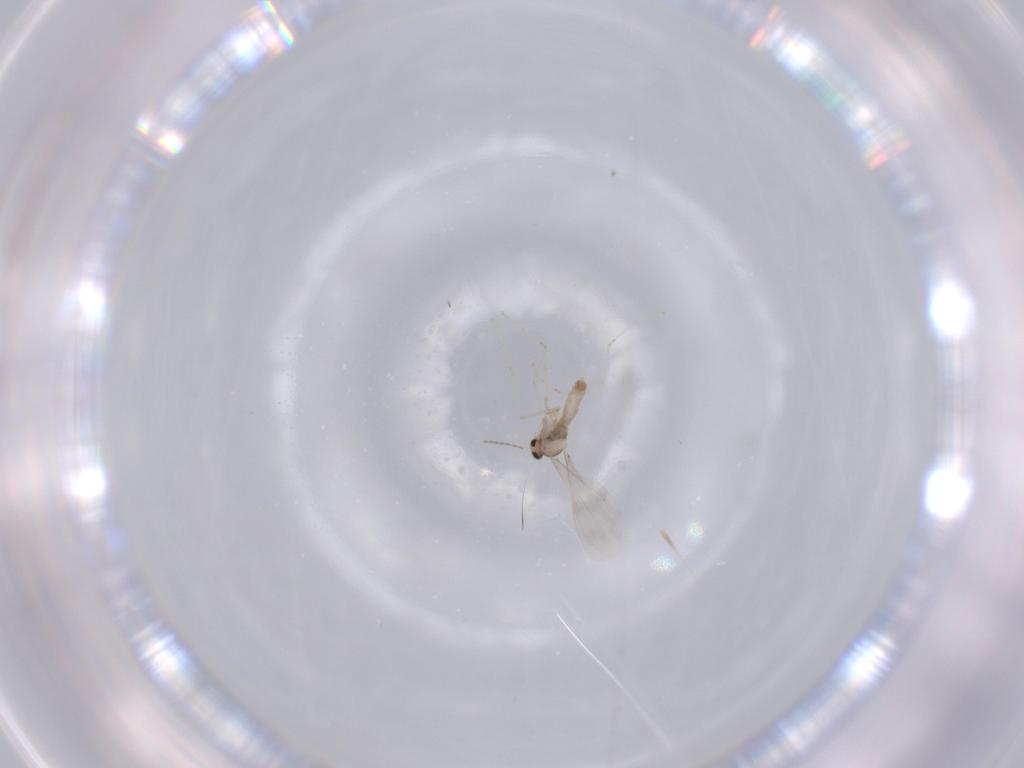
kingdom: Animalia
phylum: Arthropoda
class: Insecta
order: Diptera
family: Sciaridae
